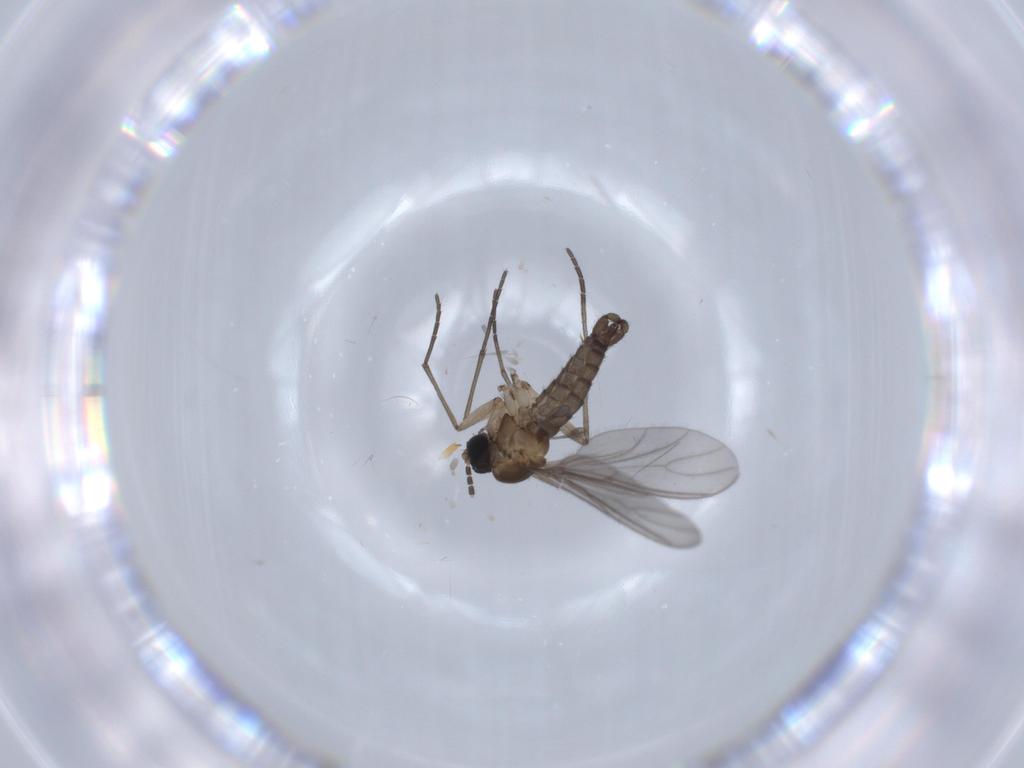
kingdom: Animalia
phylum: Arthropoda
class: Insecta
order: Diptera
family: Sciaridae
